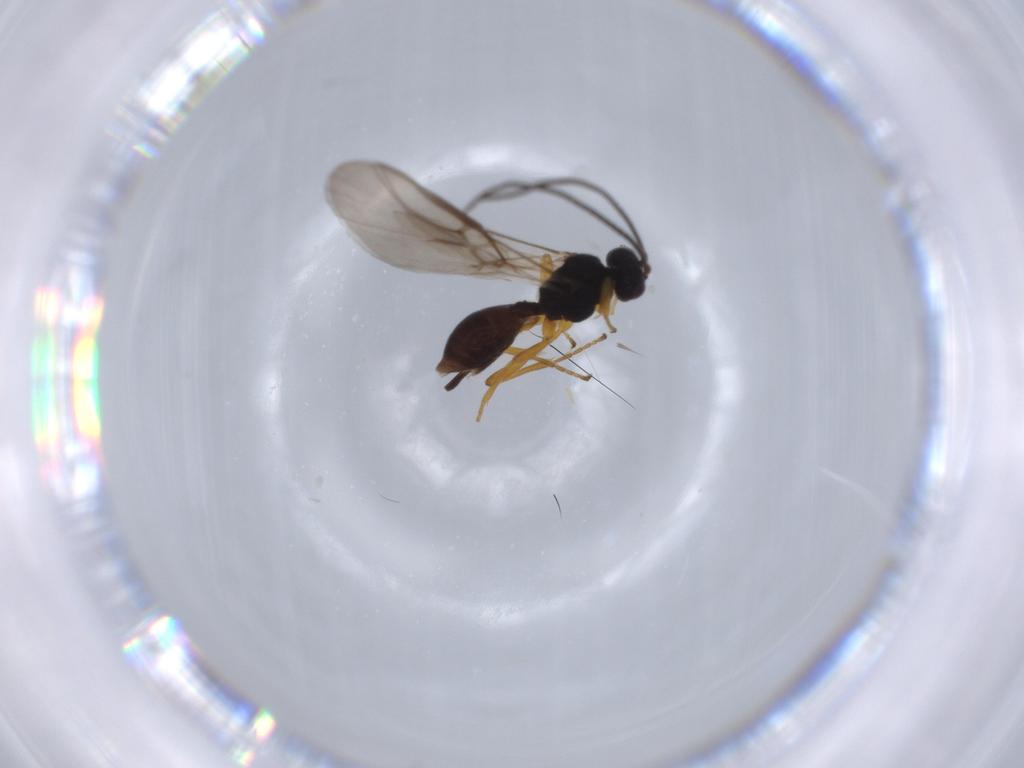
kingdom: Animalia
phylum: Arthropoda
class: Insecta
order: Hymenoptera
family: Braconidae
